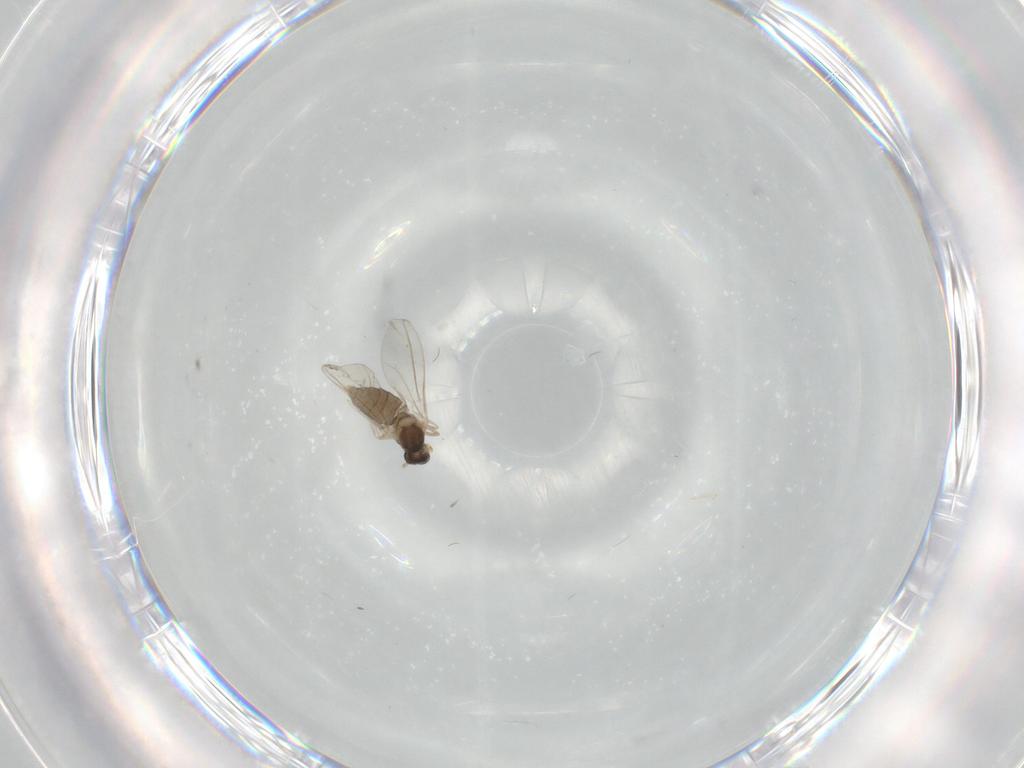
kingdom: Animalia
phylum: Arthropoda
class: Insecta
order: Diptera
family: Cecidomyiidae
